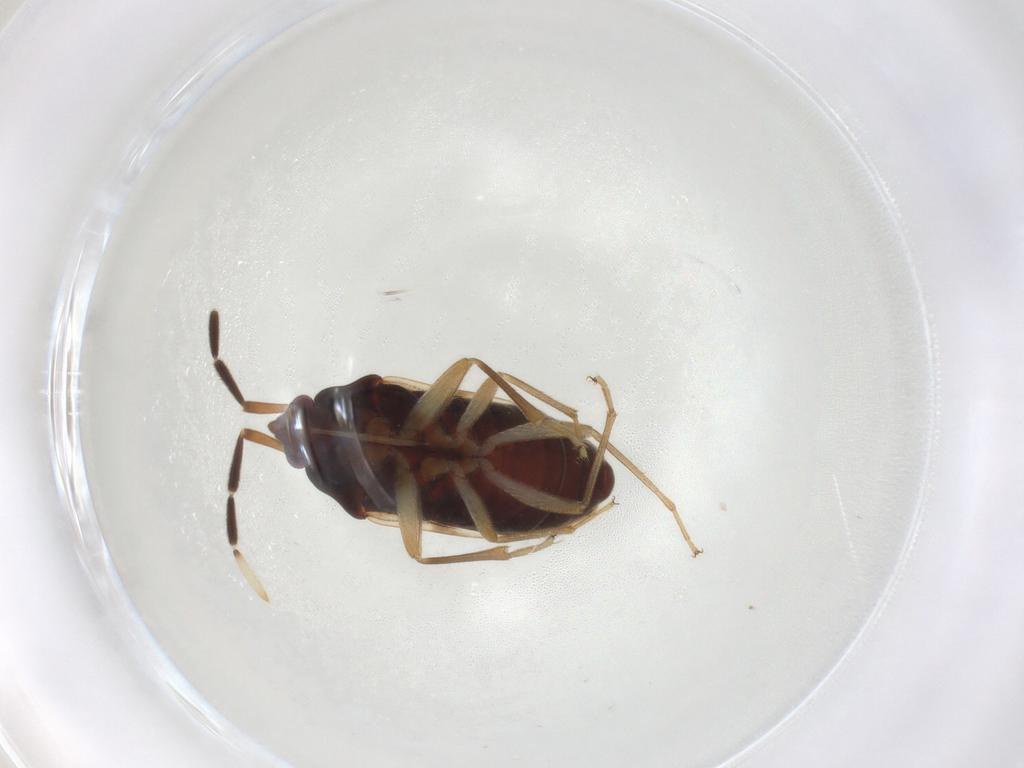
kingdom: Animalia
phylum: Arthropoda
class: Insecta
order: Hemiptera
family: Rhyparochromidae
